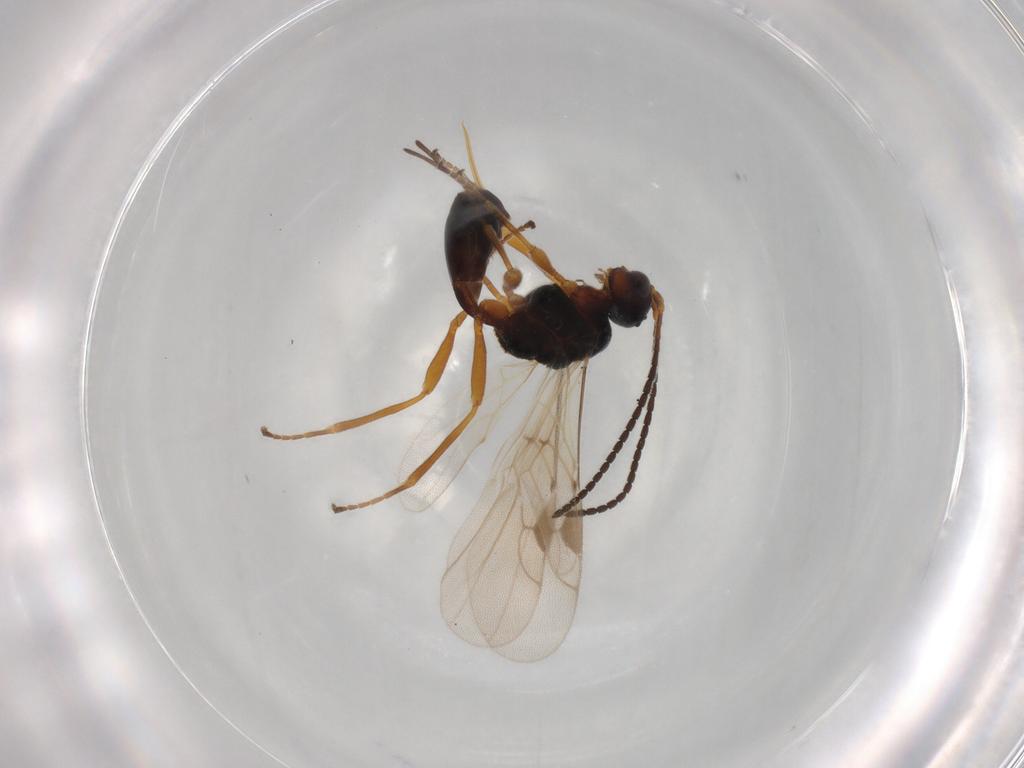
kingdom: Animalia
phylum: Arthropoda
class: Insecta
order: Hymenoptera
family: Braconidae
